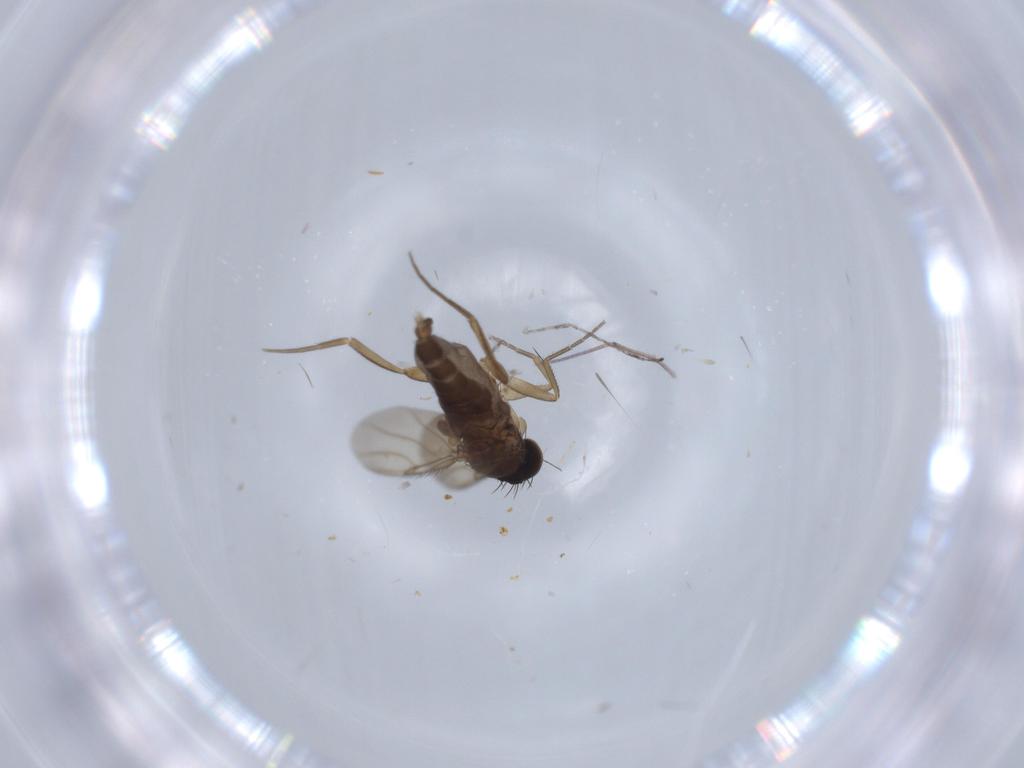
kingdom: Animalia
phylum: Arthropoda
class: Insecta
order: Diptera
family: Phoridae
